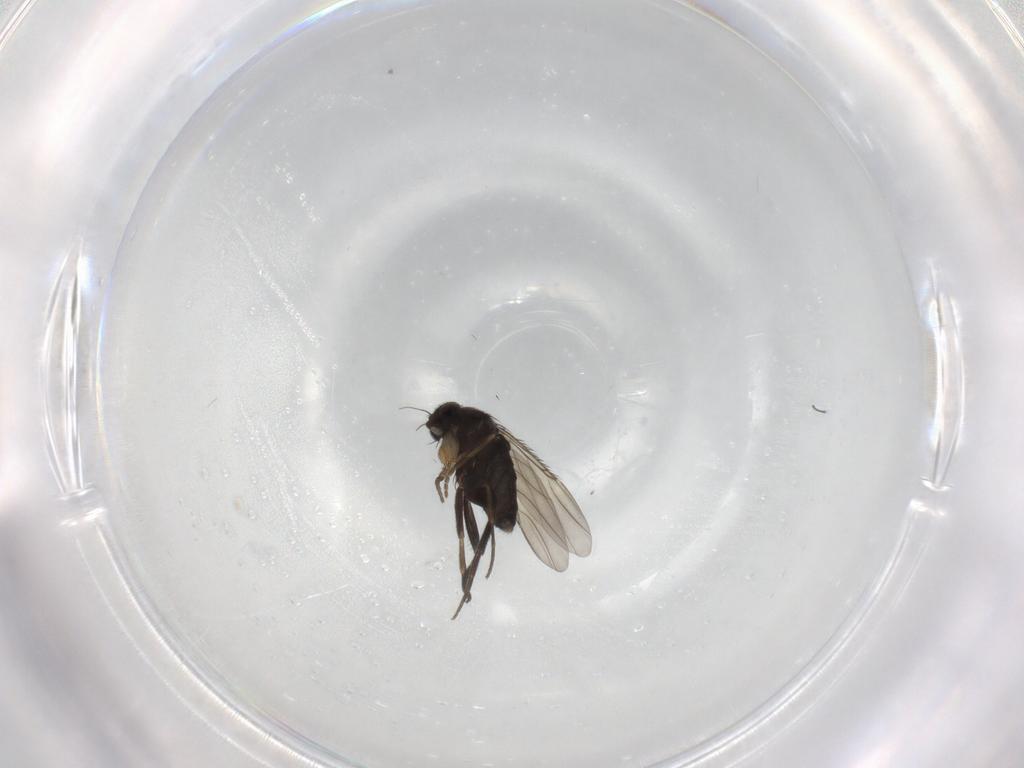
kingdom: Animalia
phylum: Arthropoda
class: Insecta
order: Diptera
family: Phoridae
